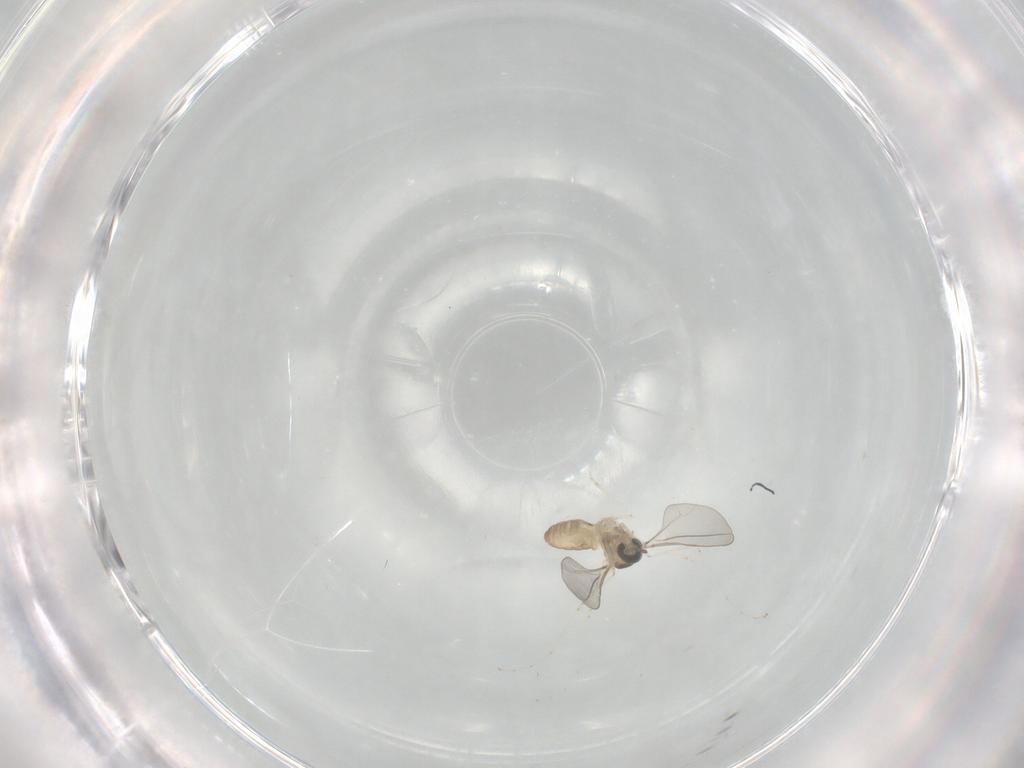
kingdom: Animalia
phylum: Arthropoda
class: Insecta
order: Diptera
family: Cecidomyiidae
